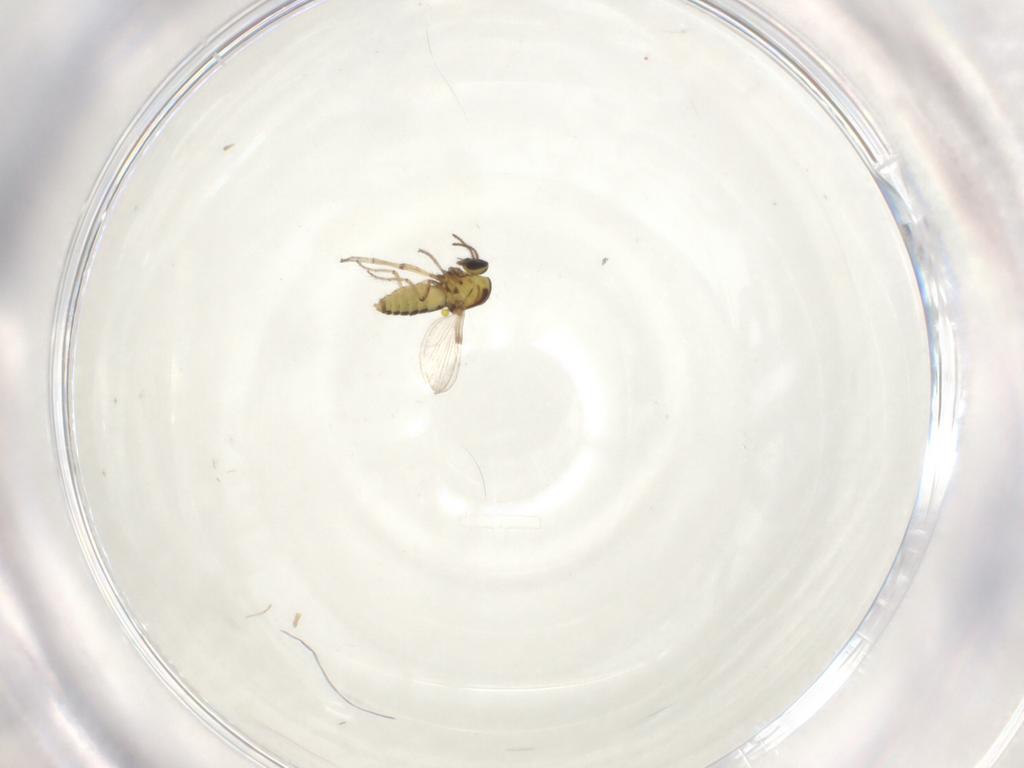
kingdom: Animalia
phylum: Arthropoda
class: Insecta
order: Diptera
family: Ceratopogonidae
